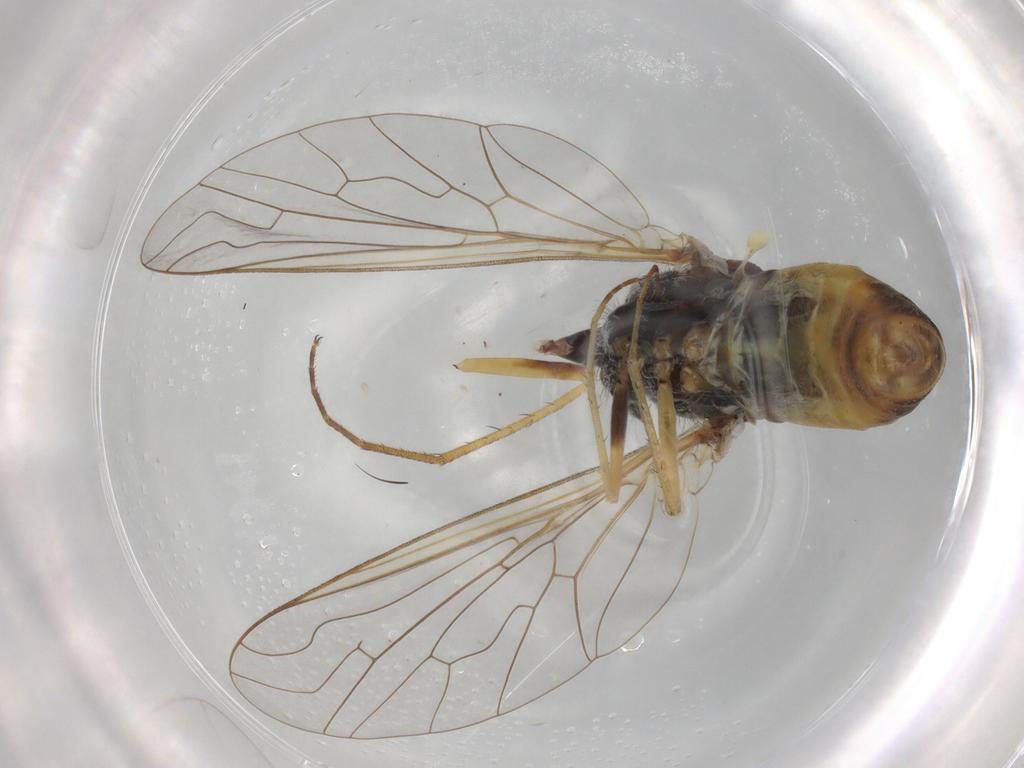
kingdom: Animalia
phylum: Arthropoda
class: Insecta
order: Diptera
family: Bombyliidae
